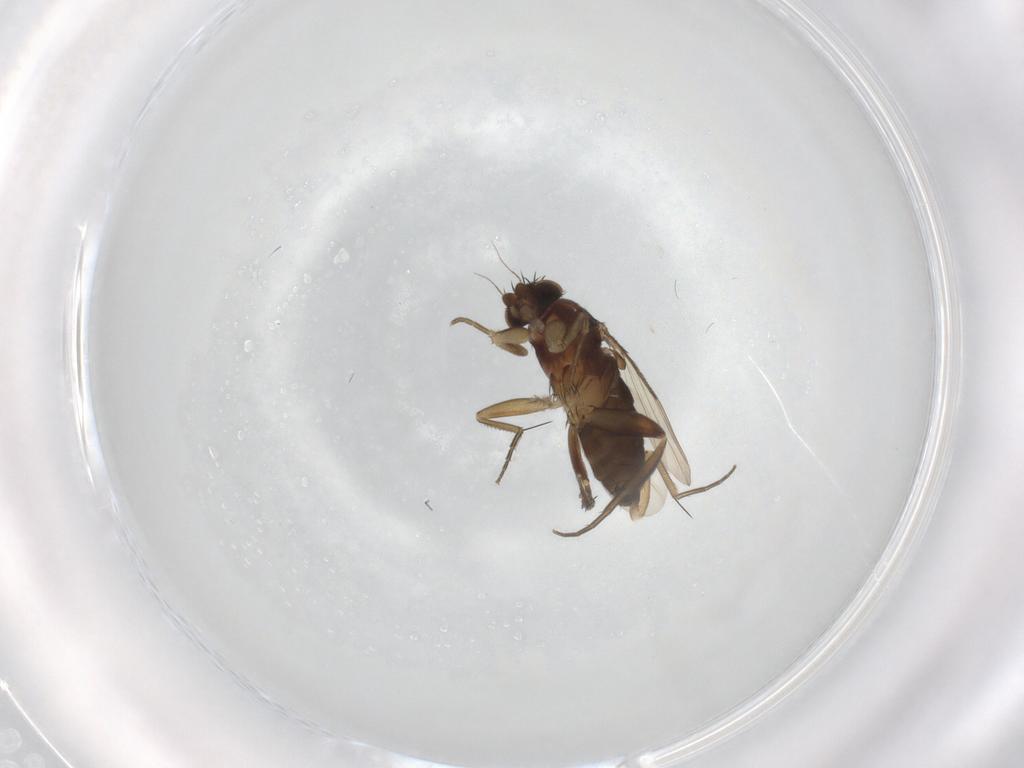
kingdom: Animalia
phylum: Arthropoda
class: Insecta
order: Diptera
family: Phoridae
